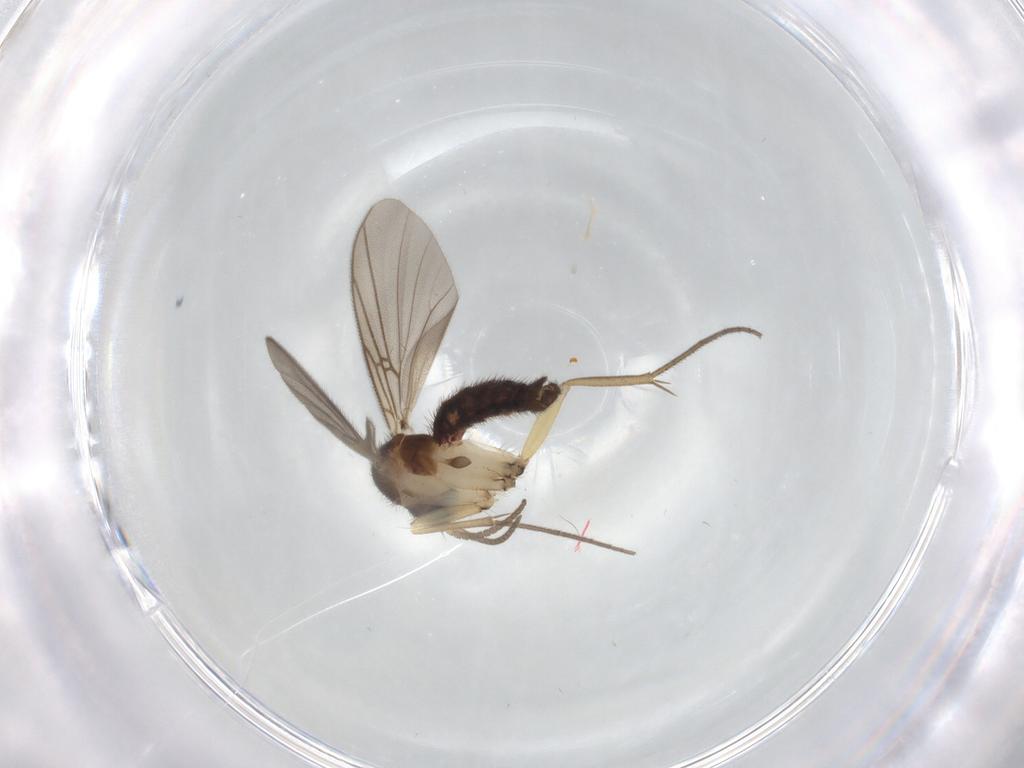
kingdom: Animalia
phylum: Arthropoda
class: Insecta
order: Diptera
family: Mycetophilidae
